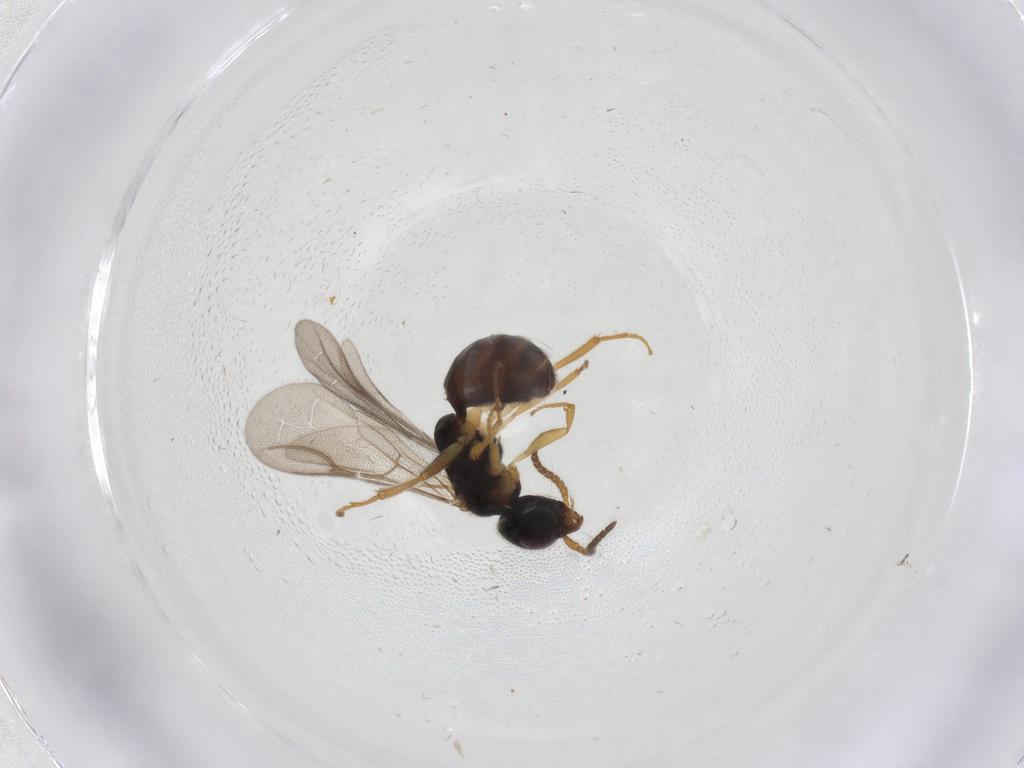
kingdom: Animalia
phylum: Arthropoda
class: Insecta
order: Hymenoptera
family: Bethylidae
